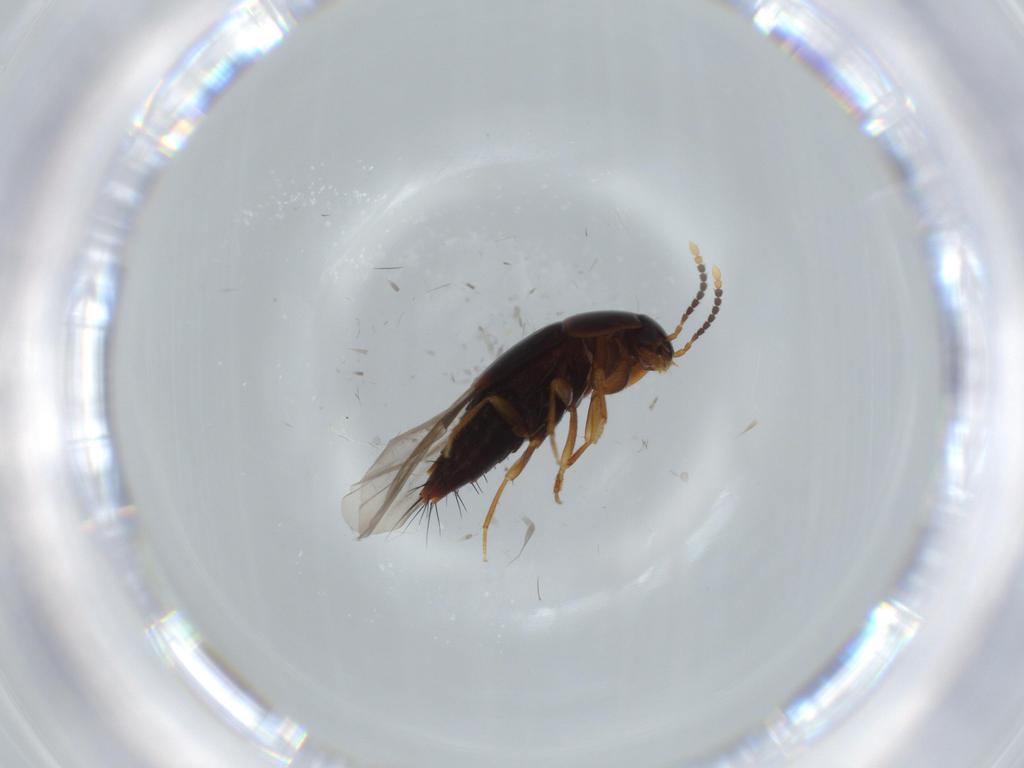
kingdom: Animalia
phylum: Arthropoda
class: Insecta
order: Coleoptera
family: Staphylinidae
